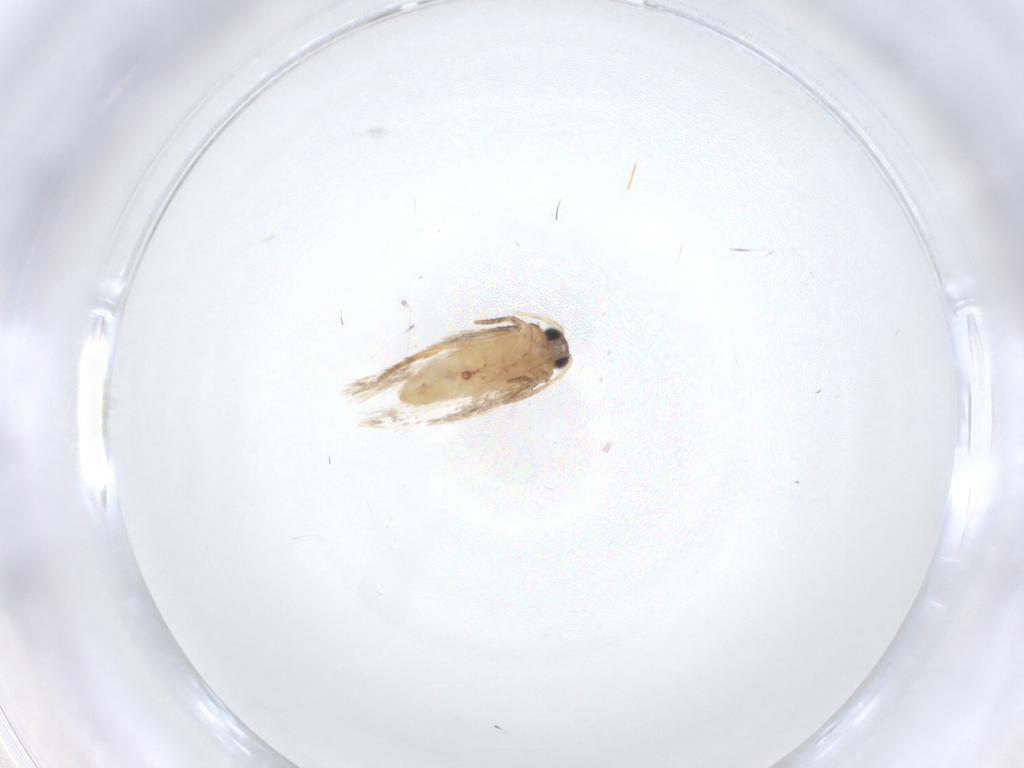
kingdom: Animalia
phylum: Arthropoda
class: Insecta
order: Lepidoptera
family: Nepticulidae
